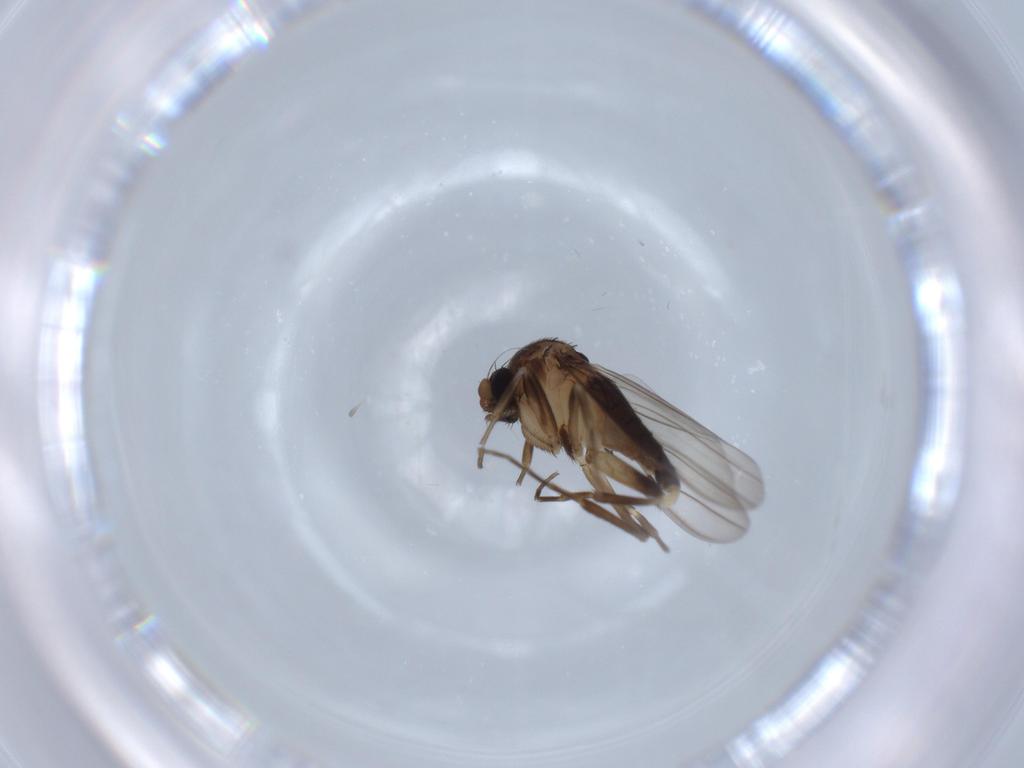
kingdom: Animalia
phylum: Arthropoda
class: Insecta
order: Diptera
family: Phoridae
